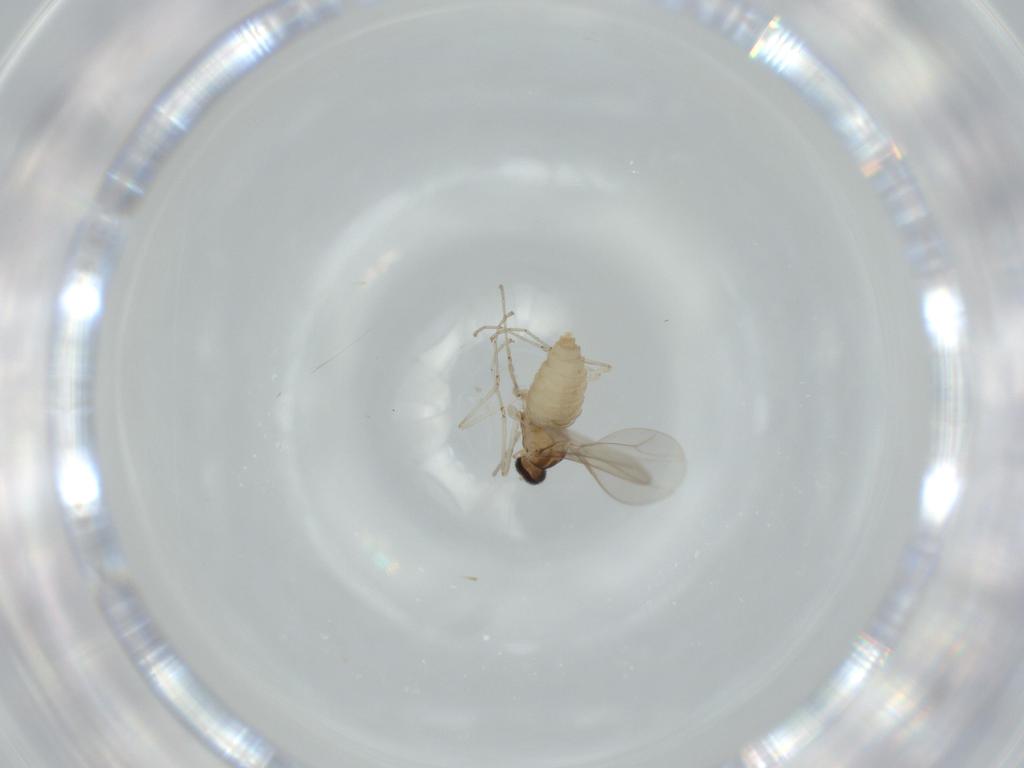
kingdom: Animalia
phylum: Arthropoda
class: Insecta
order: Diptera
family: Cecidomyiidae
